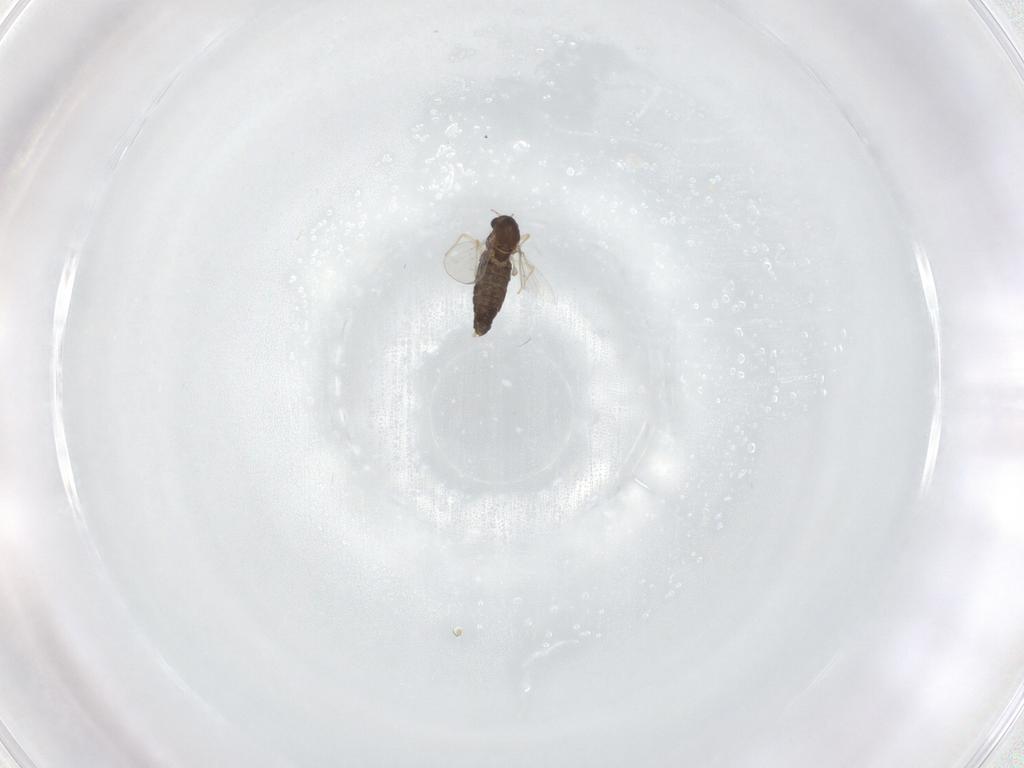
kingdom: Animalia
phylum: Arthropoda
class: Insecta
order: Diptera
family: Chironomidae
